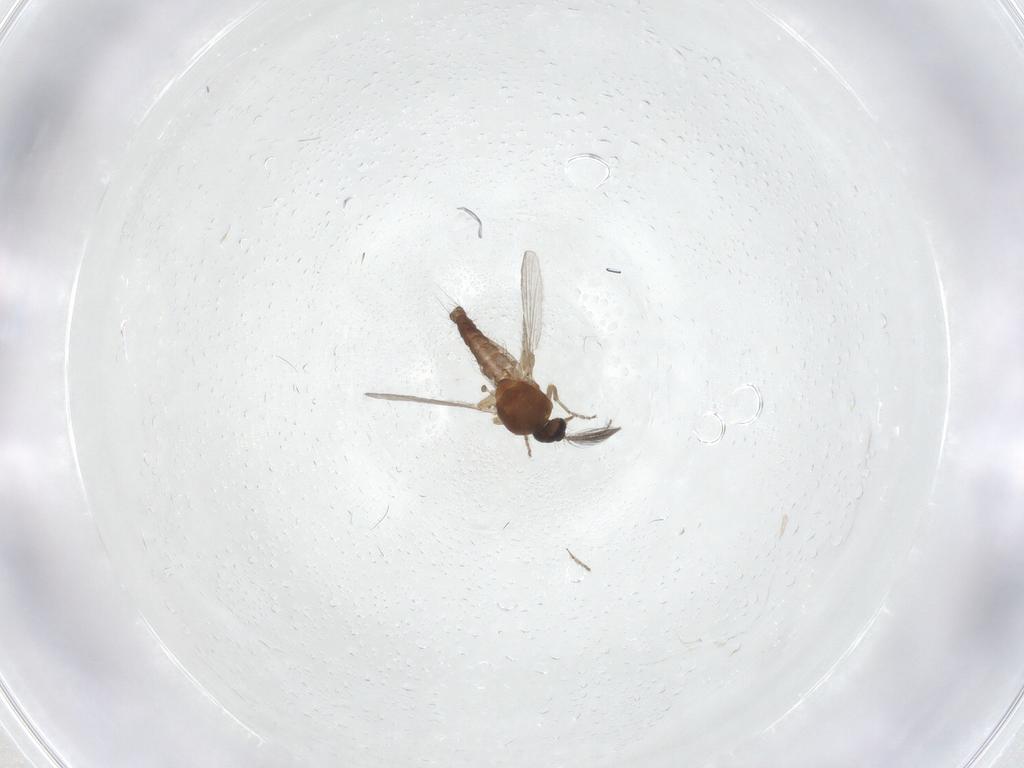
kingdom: Animalia
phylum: Arthropoda
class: Insecta
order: Diptera
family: Ceratopogonidae
